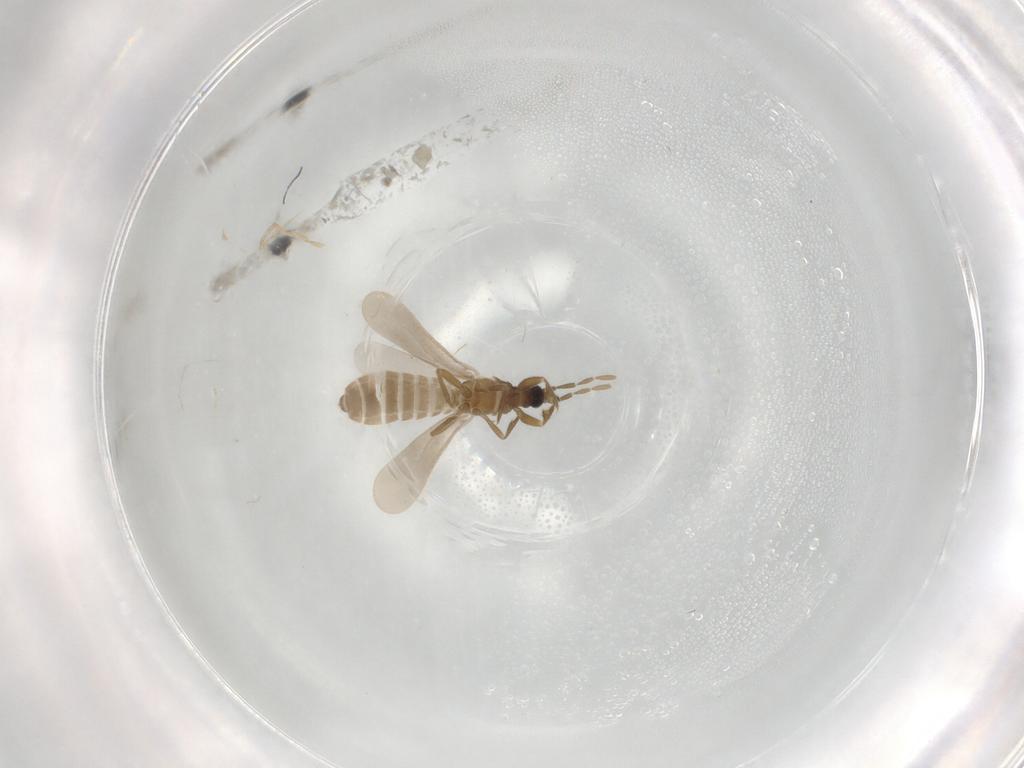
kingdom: Animalia
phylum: Arthropoda
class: Insecta
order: Hemiptera
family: Enicocephalidae
